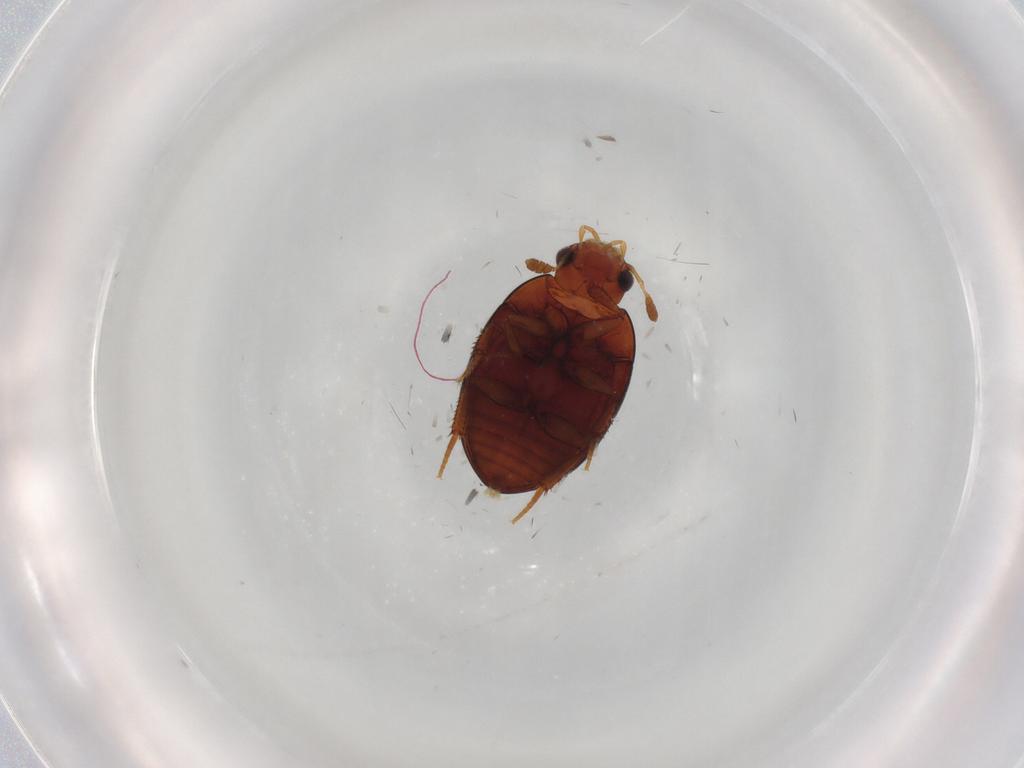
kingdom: Animalia
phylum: Arthropoda
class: Insecta
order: Coleoptera
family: Hydrophilidae
